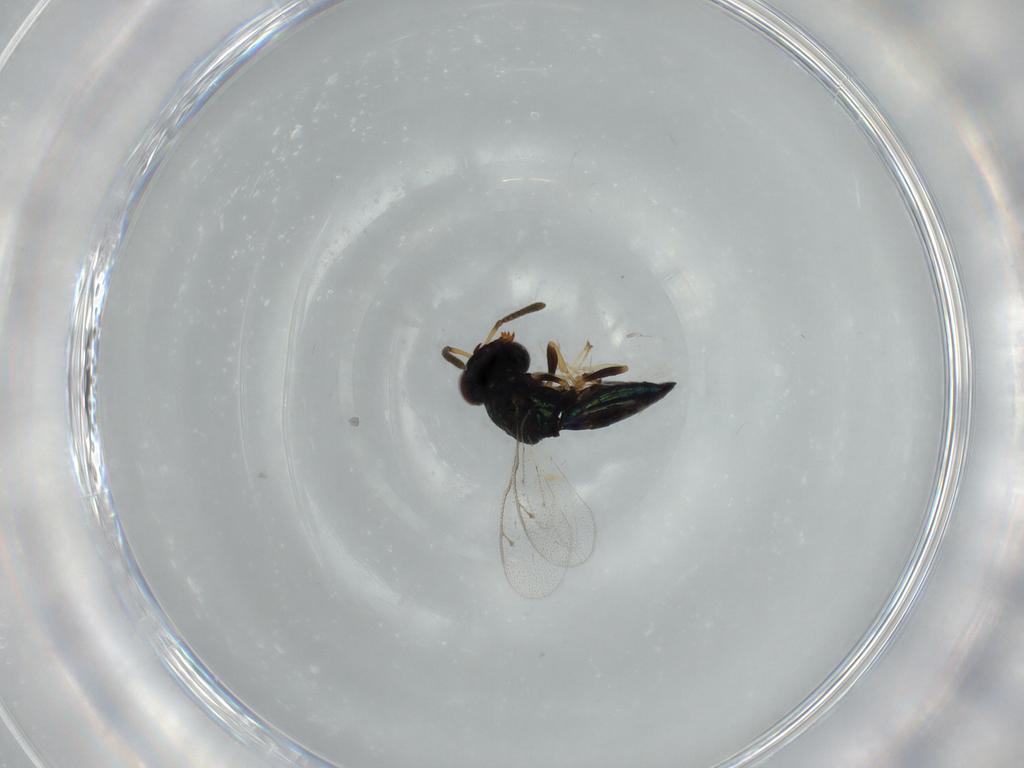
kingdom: Animalia
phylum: Arthropoda
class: Insecta
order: Hymenoptera
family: Pteromalidae
